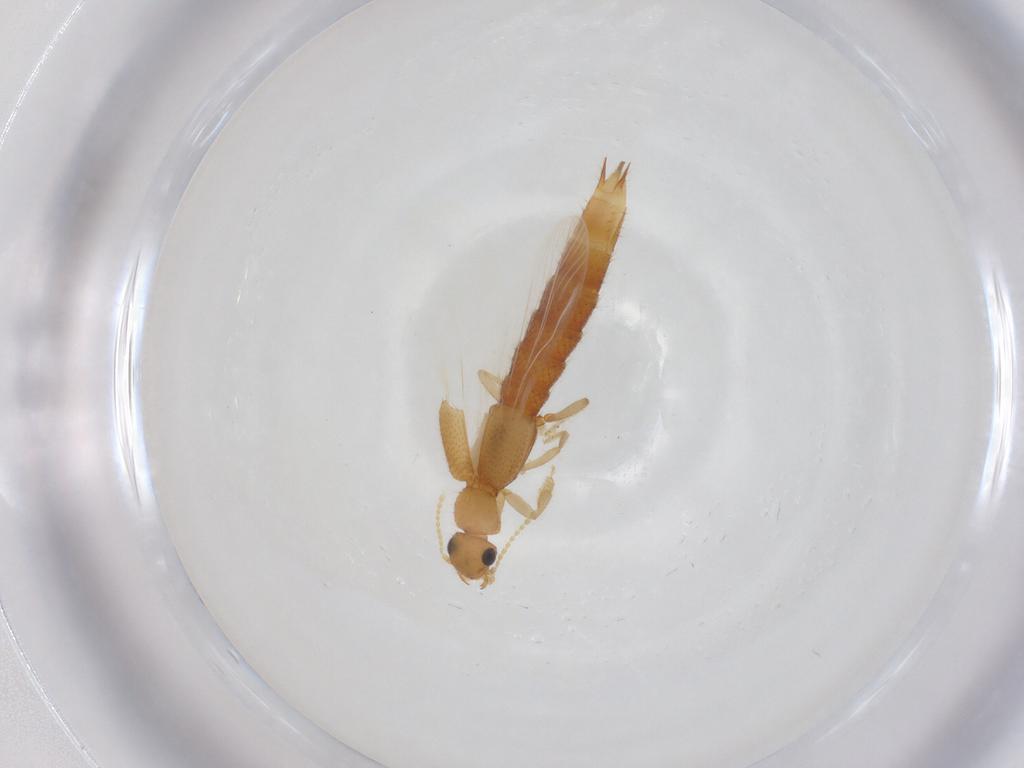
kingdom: Animalia
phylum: Arthropoda
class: Insecta
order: Coleoptera
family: Staphylinidae
